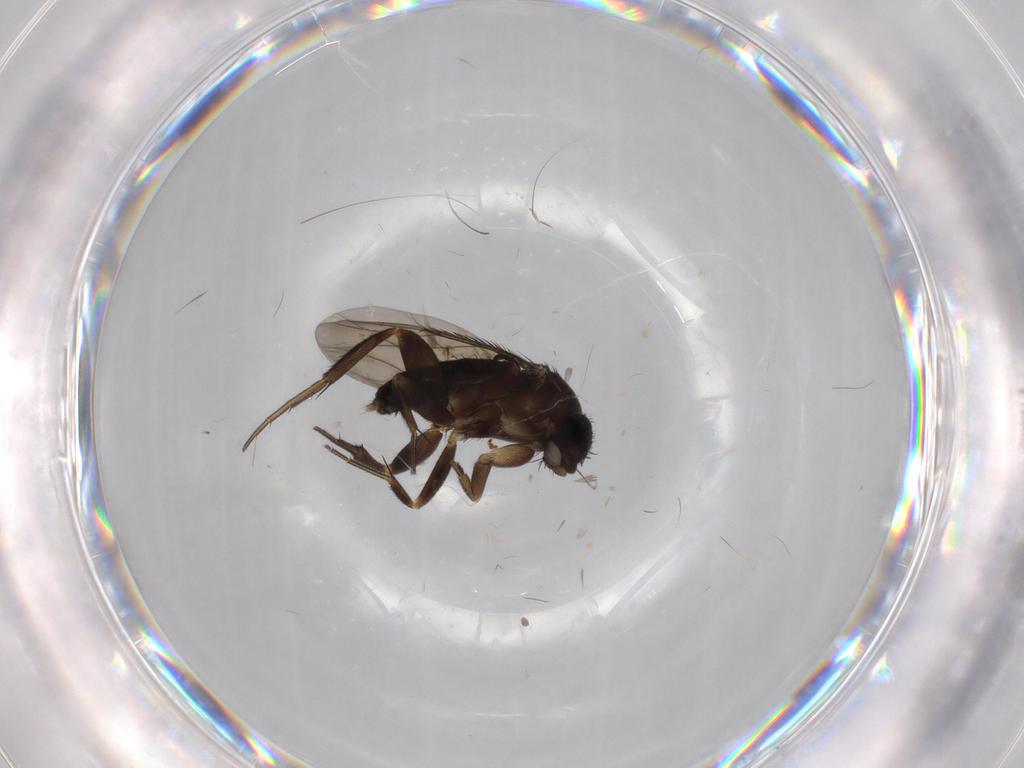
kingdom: Animalia
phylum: Arthropoda
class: Insecta
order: Diptera
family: Phoridae
